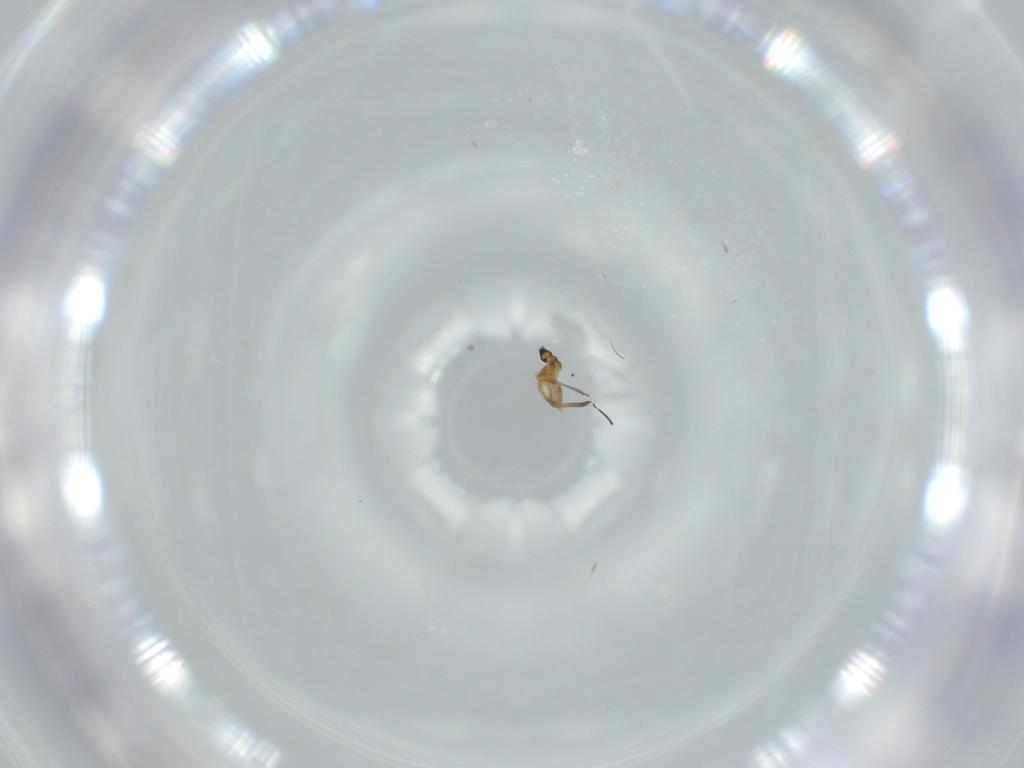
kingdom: Animalia
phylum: Arthropoda
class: Insecta
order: Diptera
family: Cecidomyiidae
